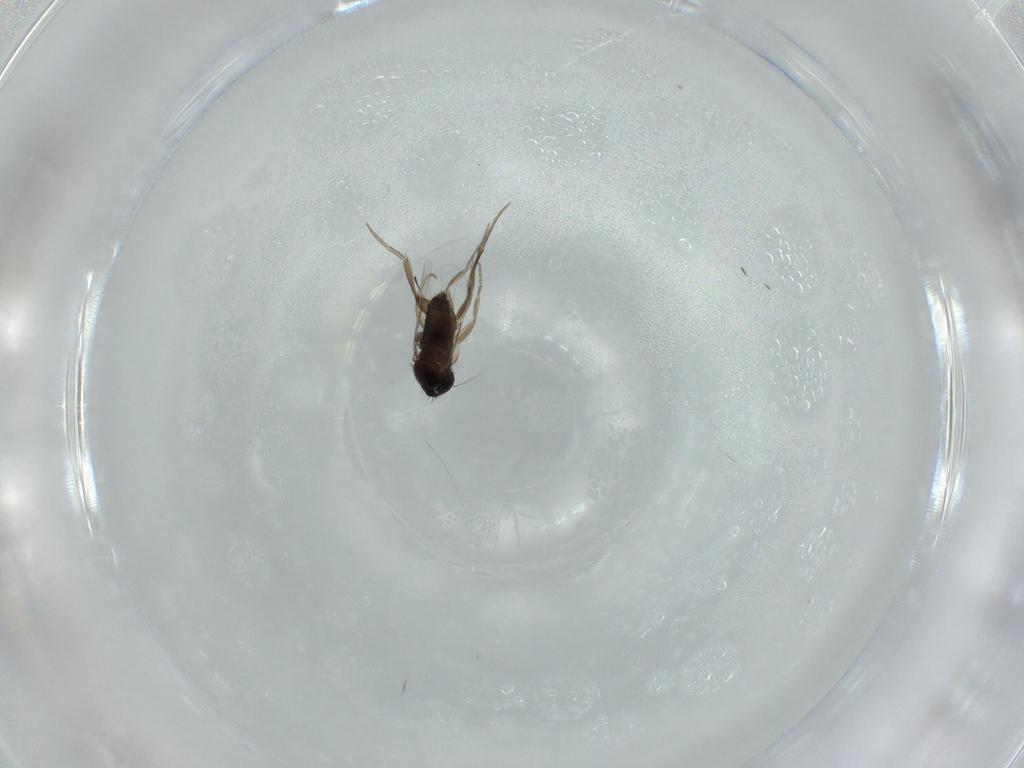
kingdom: Animalia
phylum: Arthropoda
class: Insecta
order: Diptera
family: Phoridae
